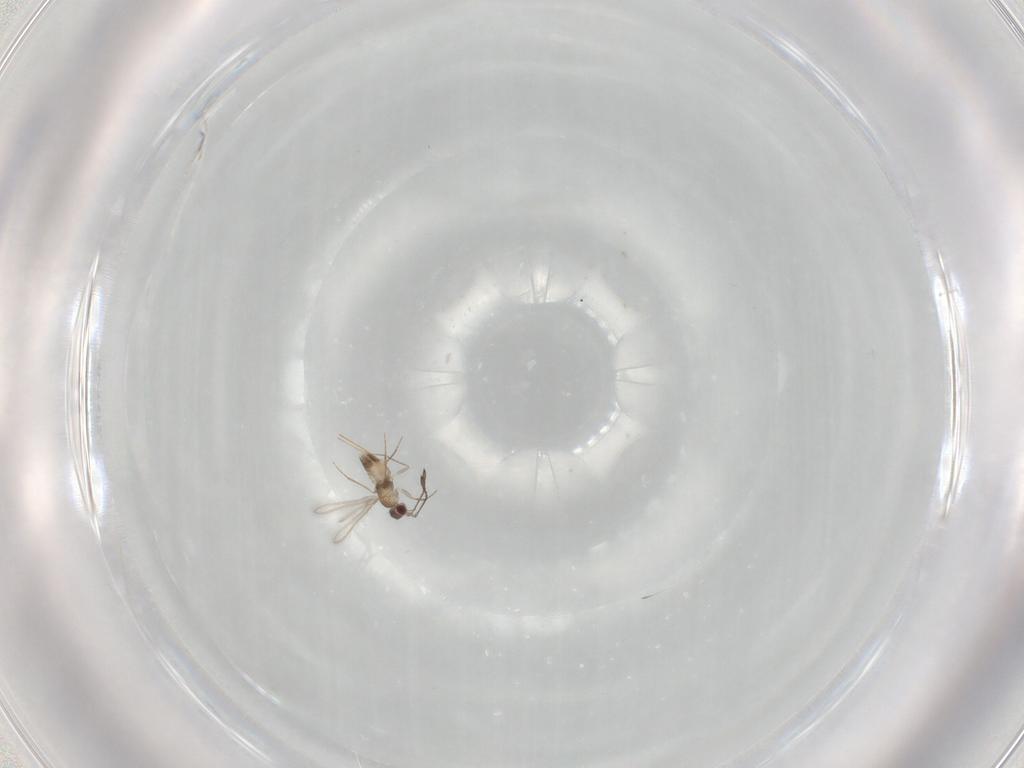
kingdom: Animalia
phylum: Arthropoda
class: Insecta
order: Hymenoptera
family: Mymaridae
